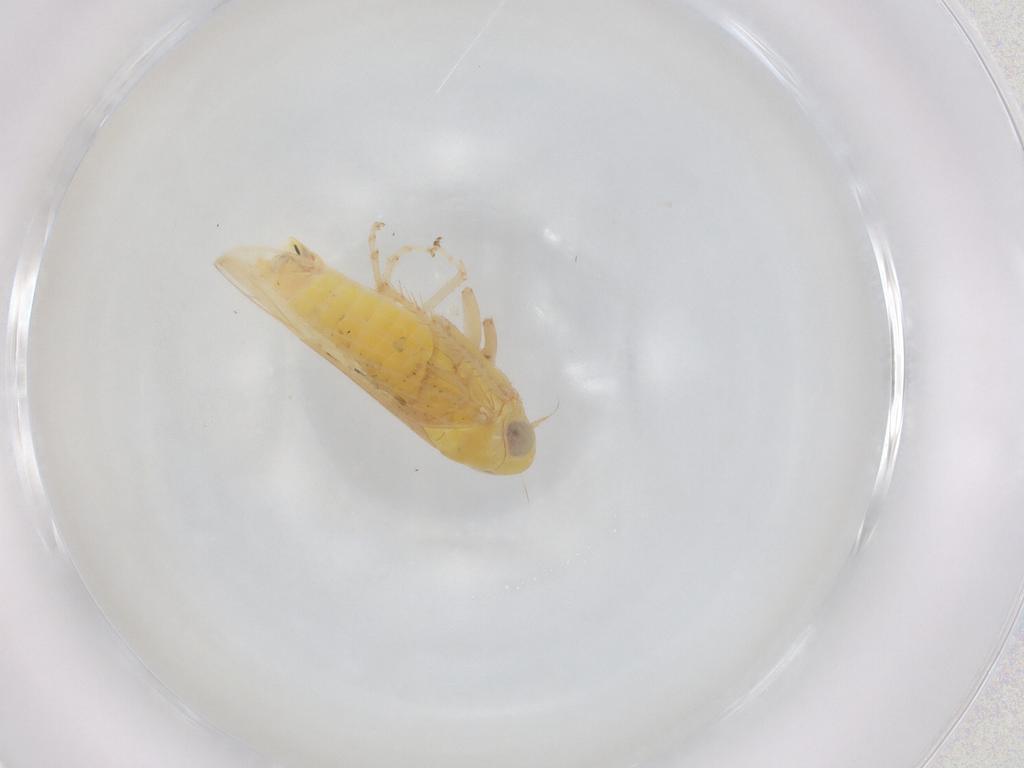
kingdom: Animalia
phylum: Arthropoda
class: Insecta
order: Hemiptera
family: Cicadellidae
